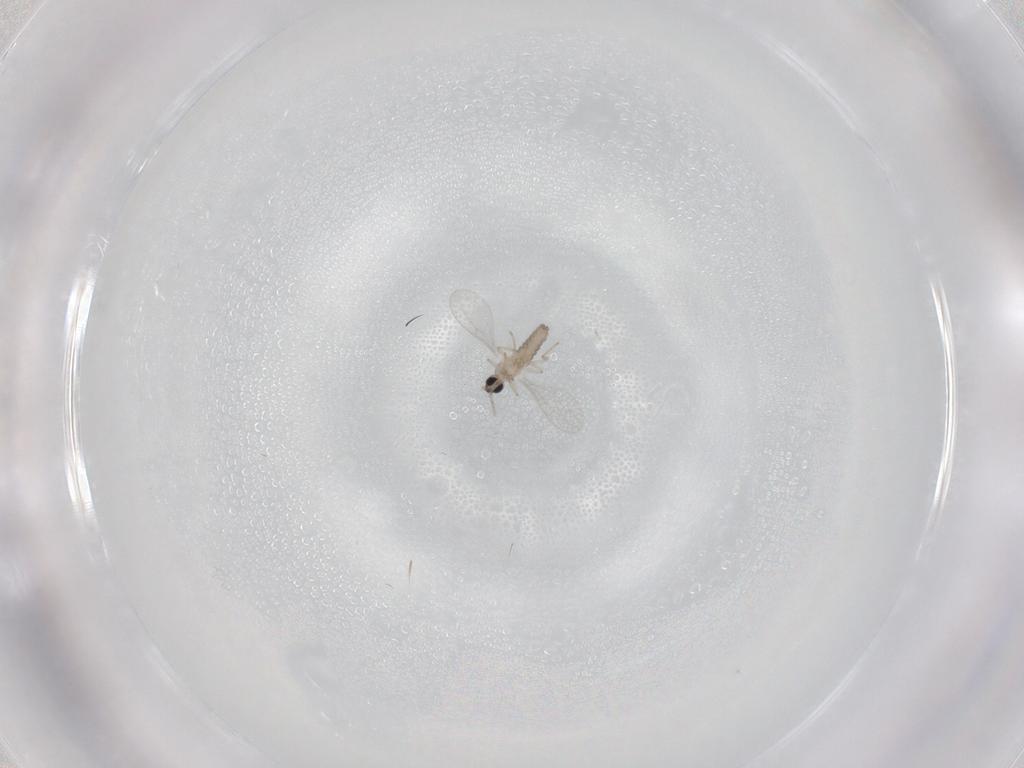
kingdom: Animalia
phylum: Arthropoda
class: Insecta
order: Diptera
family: Cecidomyiidae
